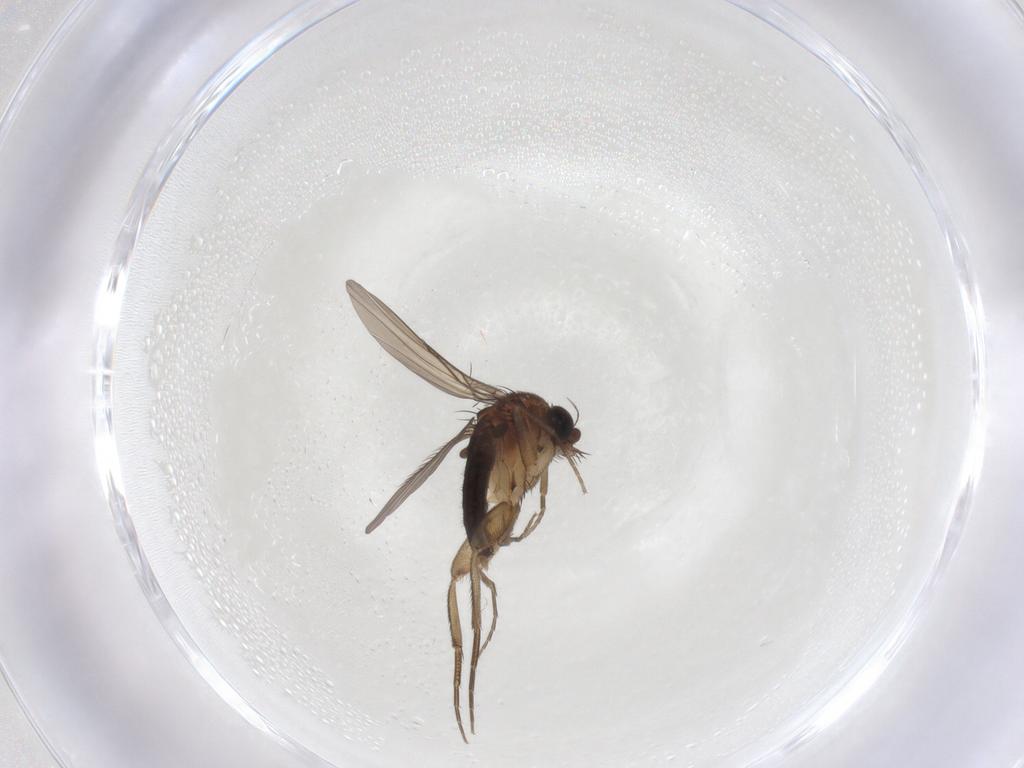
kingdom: Animalia
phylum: Arthropoda
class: Insecta
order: Diptera
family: Phoridae
